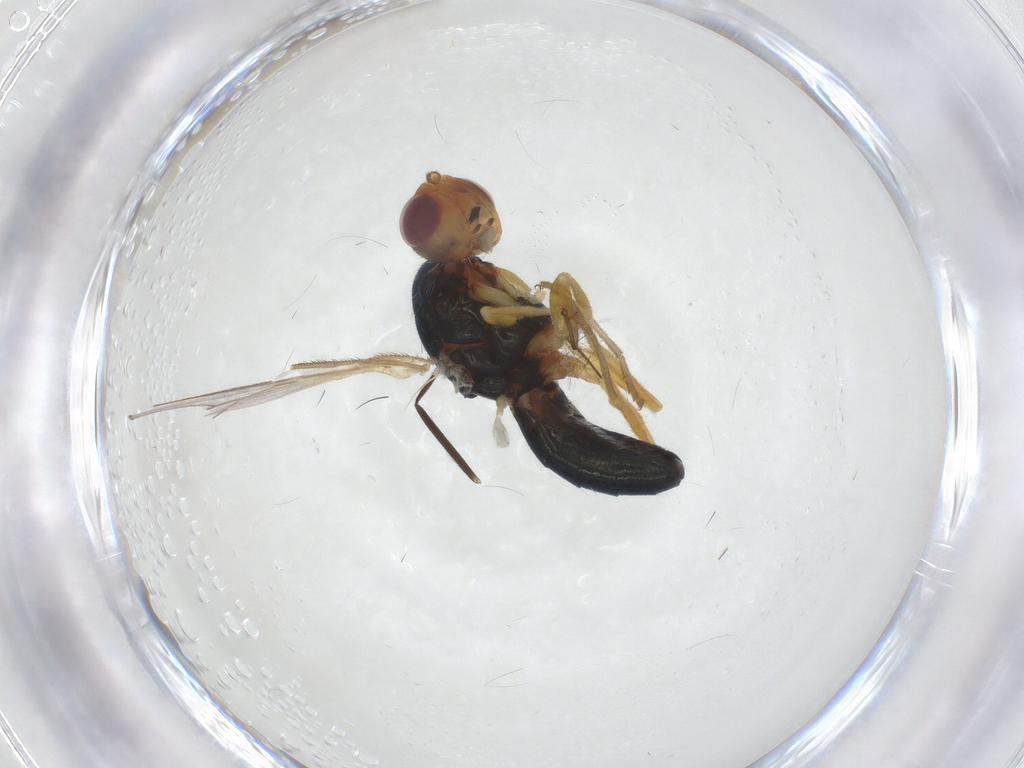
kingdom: Animalia
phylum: Arthropoda
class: Insecta
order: Diptera
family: Chironomidae
